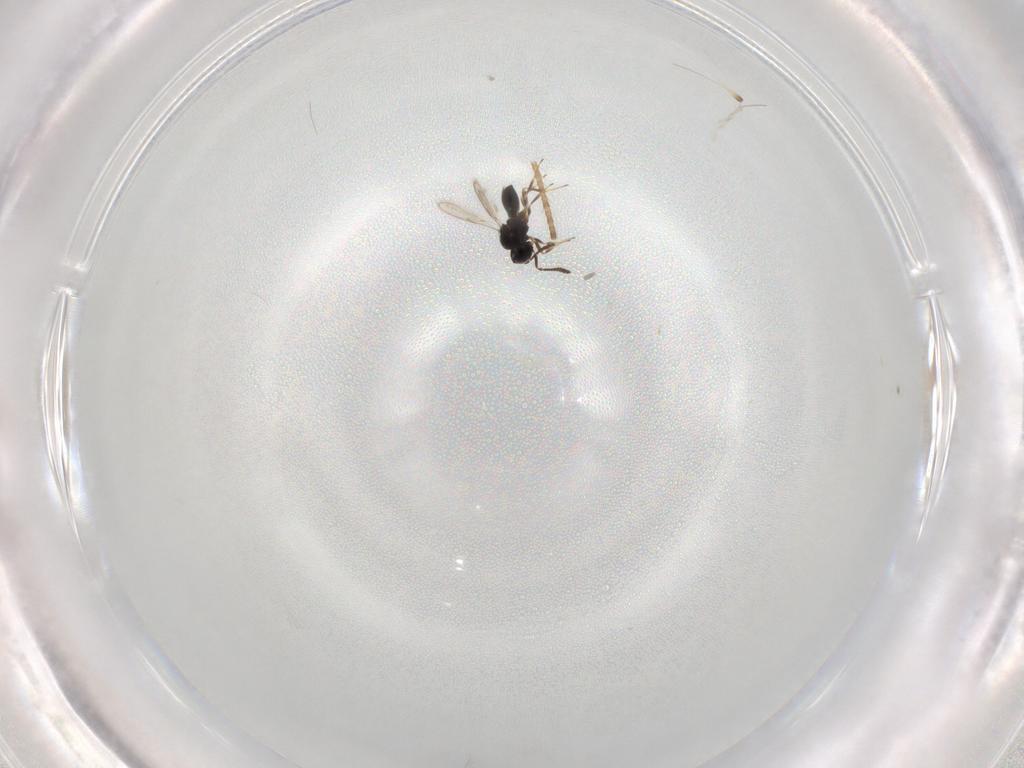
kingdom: Animalia
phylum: Arthropoda
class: Insecta
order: Hymenoptera
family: Scelionidae
